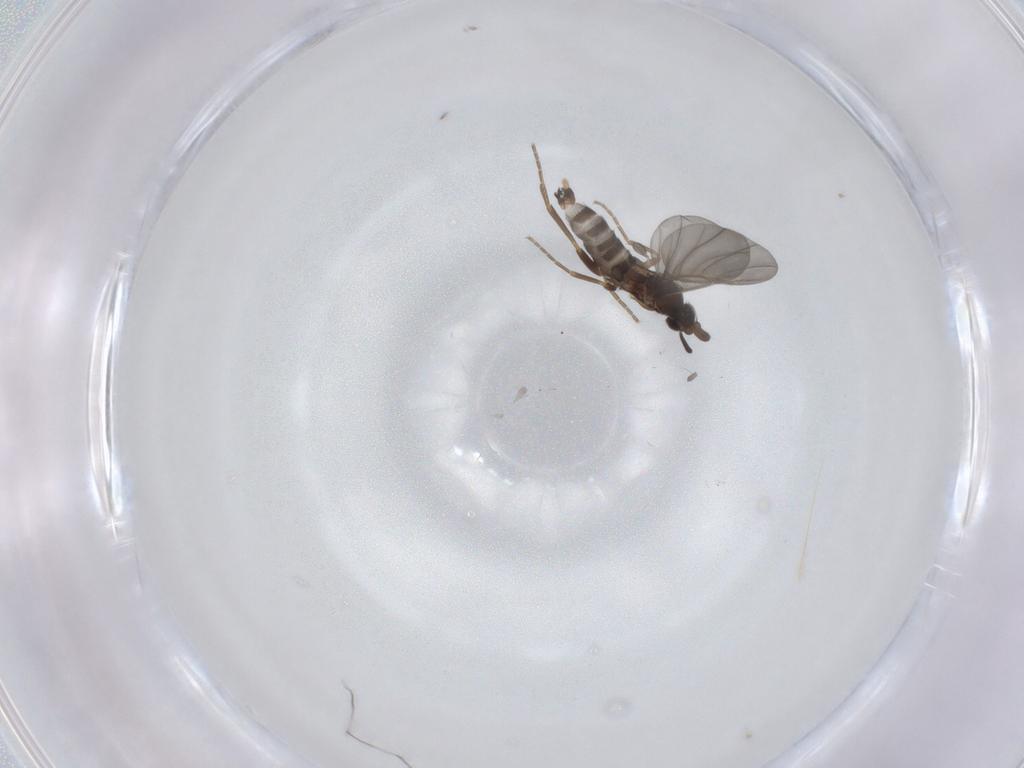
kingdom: Animalia
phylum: Arthropoda
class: Insecta
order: Diptera
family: Phoridae
